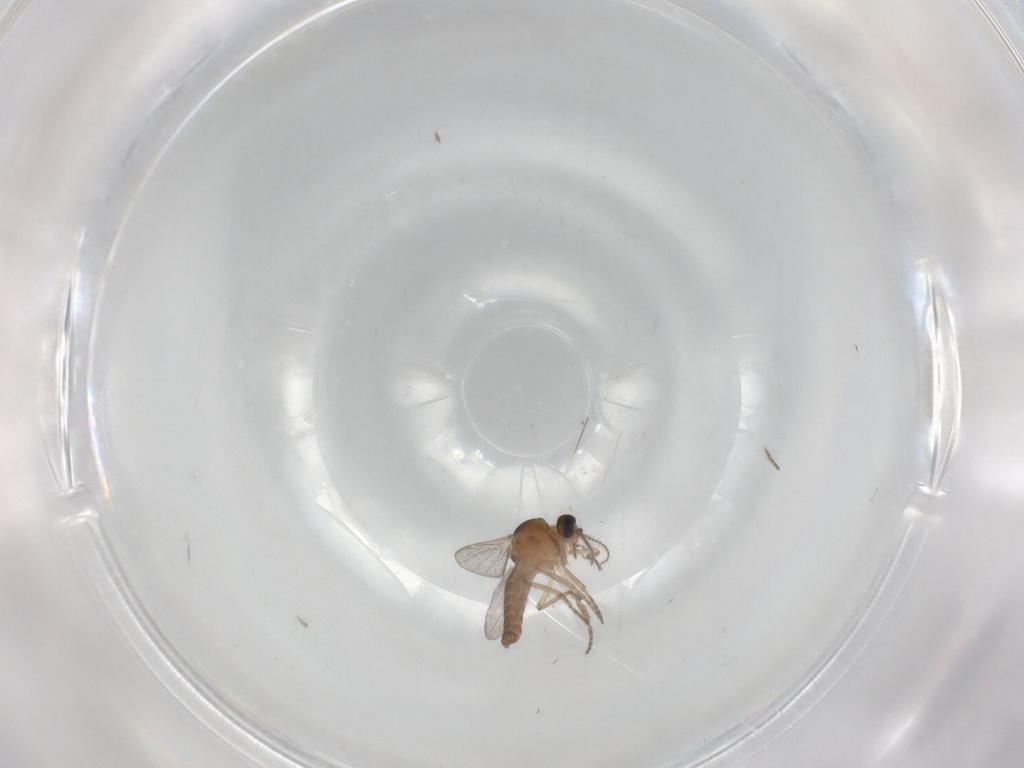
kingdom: Animalia
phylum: Arthropoda
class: Insecta
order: Diptera
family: Ceratopogonidae
